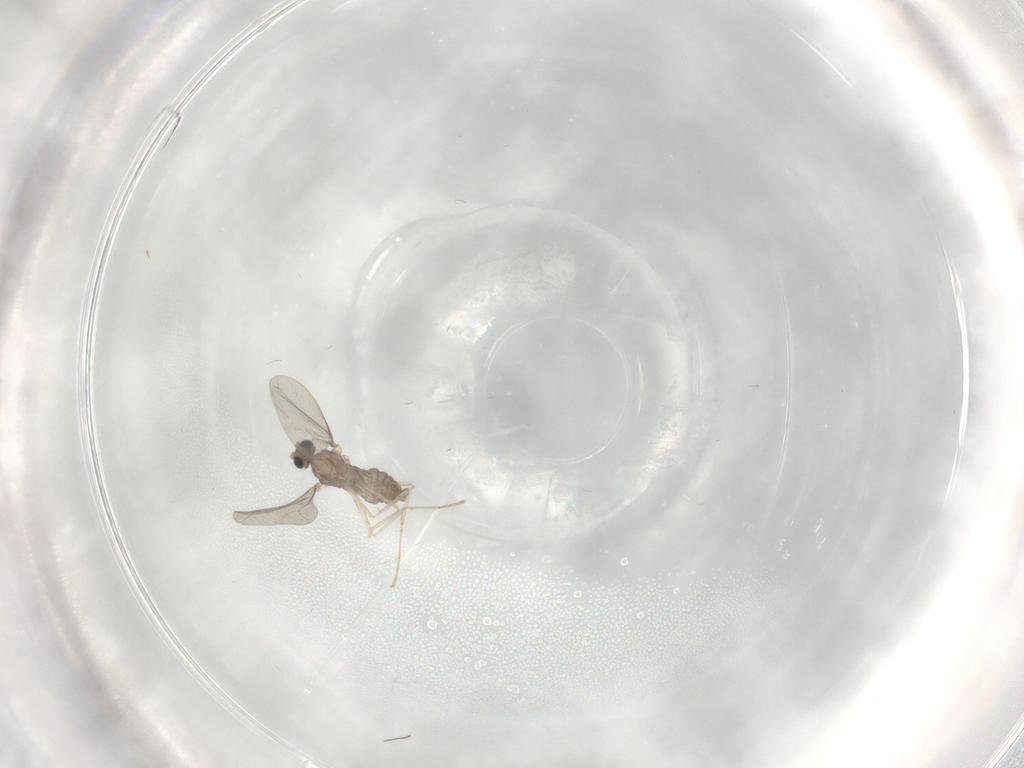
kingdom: Animalia
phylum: Arthropoda
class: Insecta
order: Diptera
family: Cecidomyiidae
